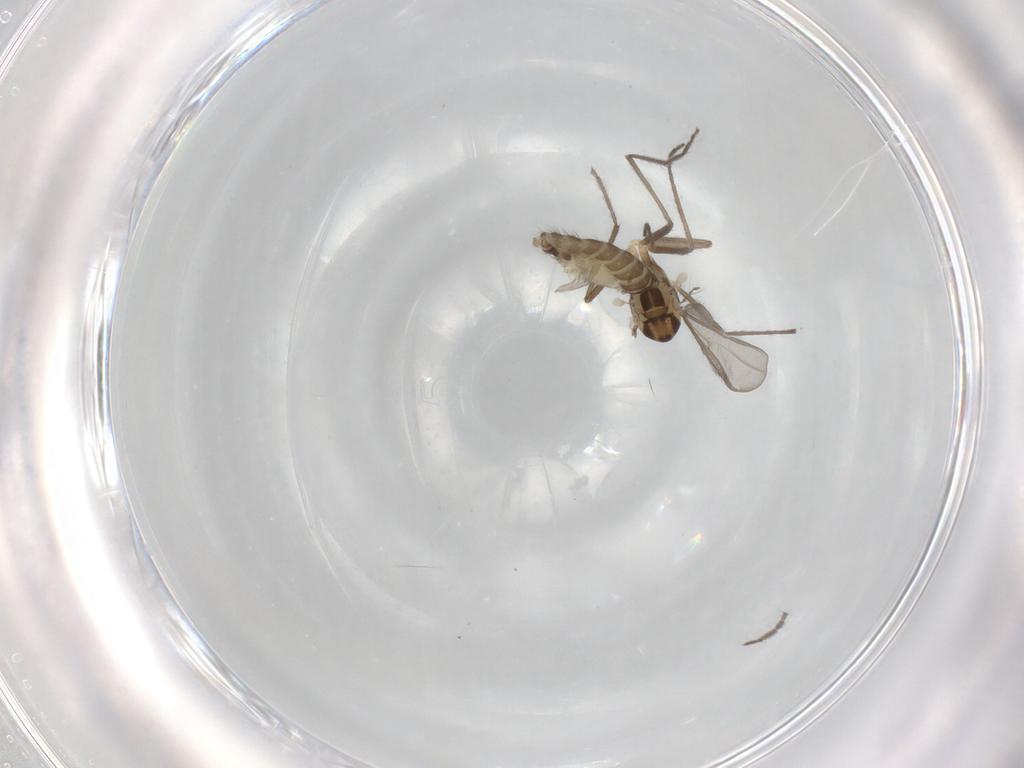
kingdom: Animalia
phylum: Arthropoda
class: Insecta
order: Diptera
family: Chironomidae
